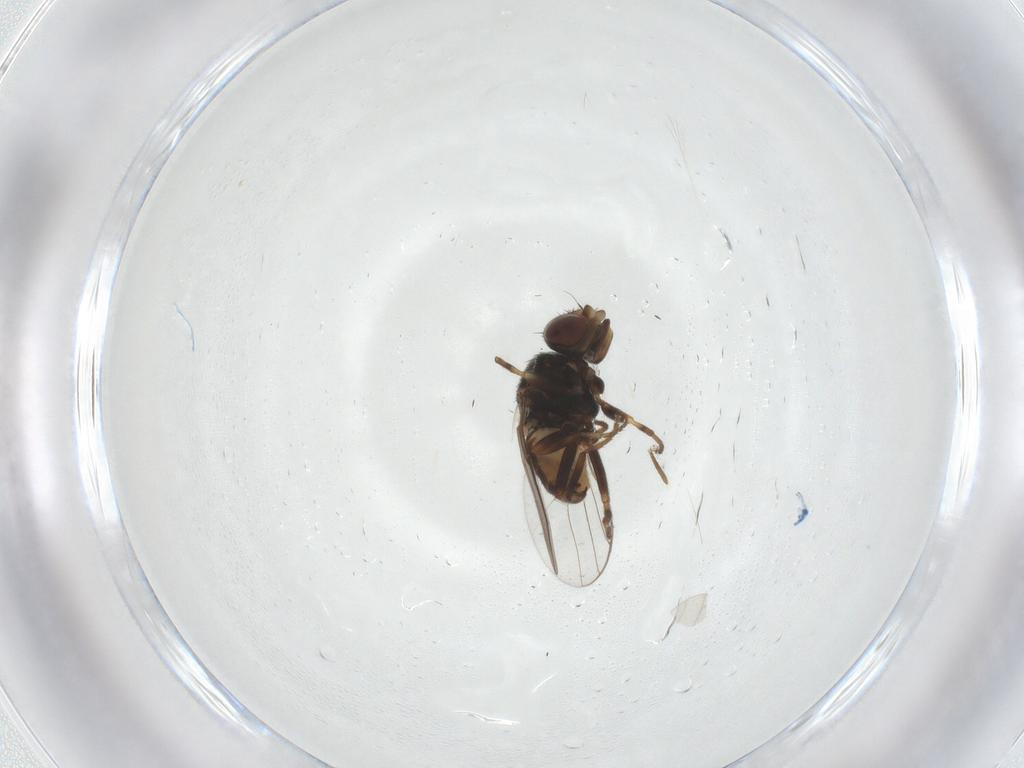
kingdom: Animalia
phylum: Arthropoda
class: Insecta
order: Diptera
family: Chloropidae
